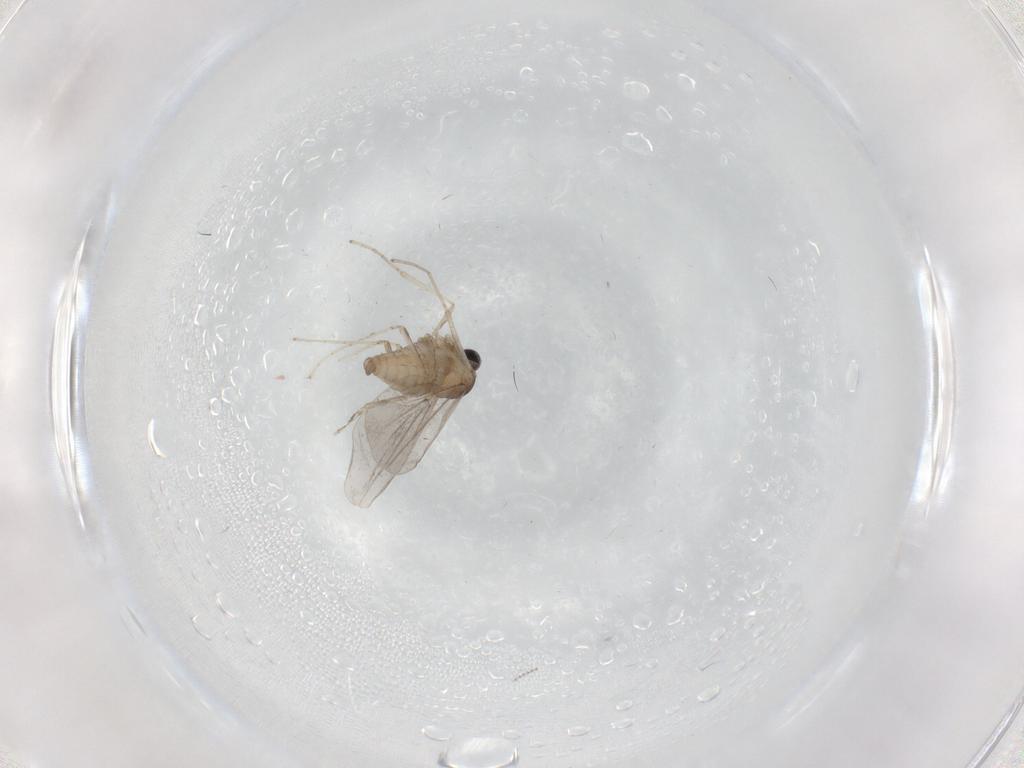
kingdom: Animalia
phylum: Arthropoda
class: Insecta
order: Diptera
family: Cecidomyiidae
